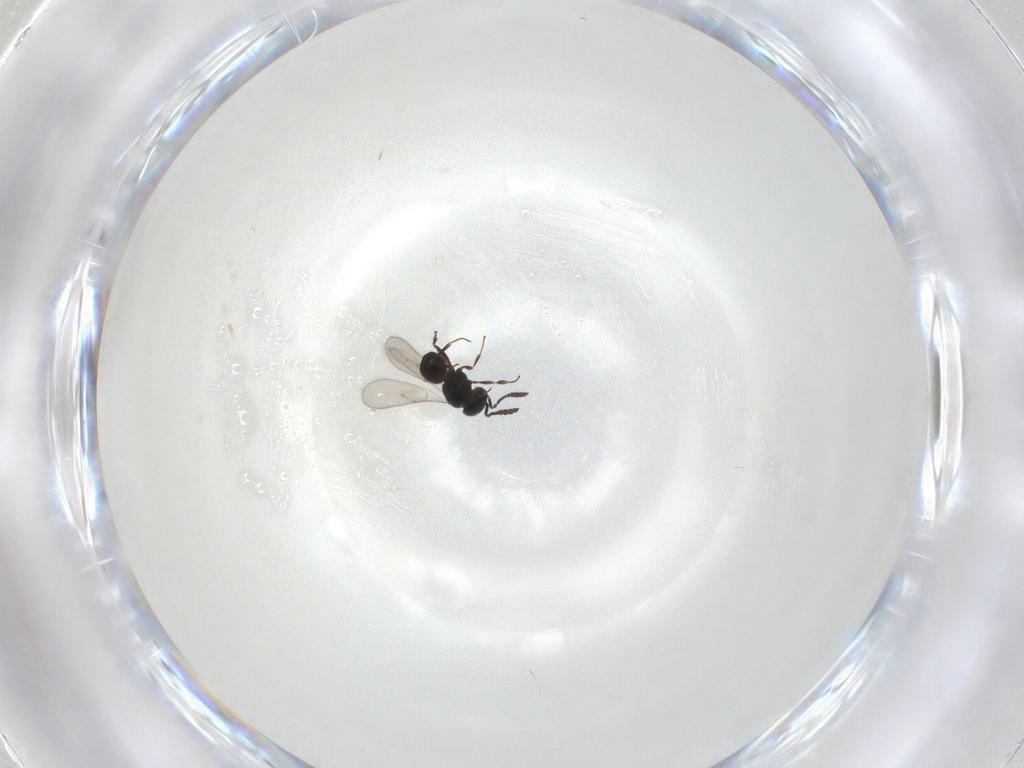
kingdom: Animalia
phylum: Arthropoda
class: Insecta
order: Hymenoptera
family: Scelionidae
